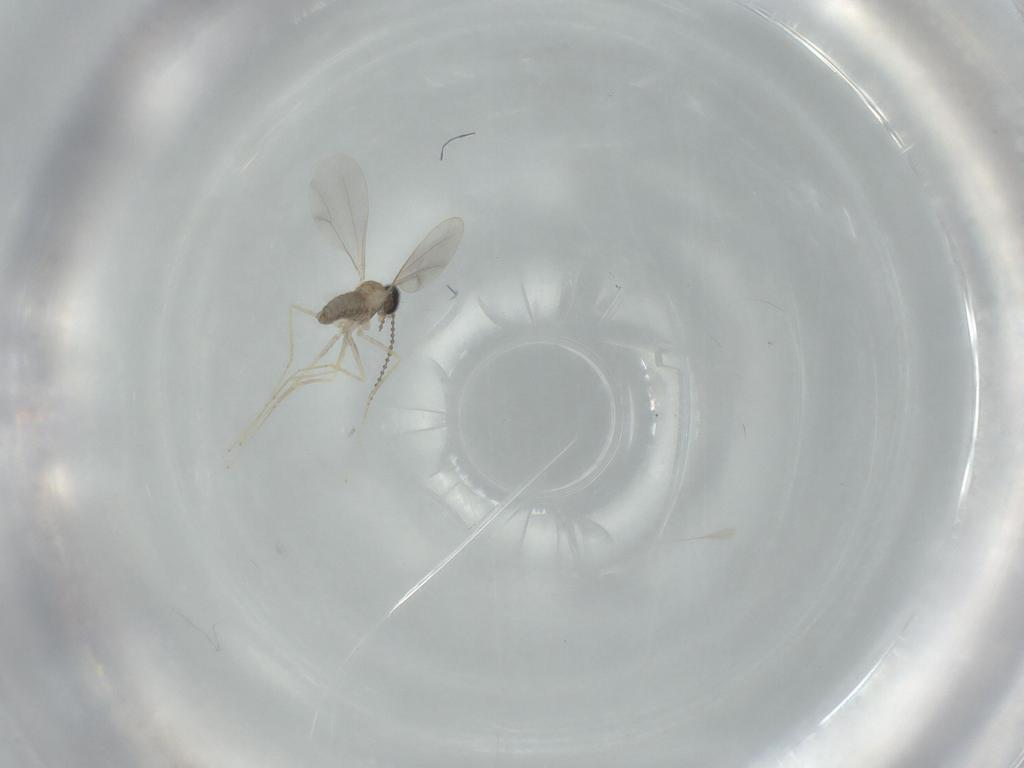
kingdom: Animalia
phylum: Arthropoda
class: Insecta
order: Diptera
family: Cecidomyiidae
